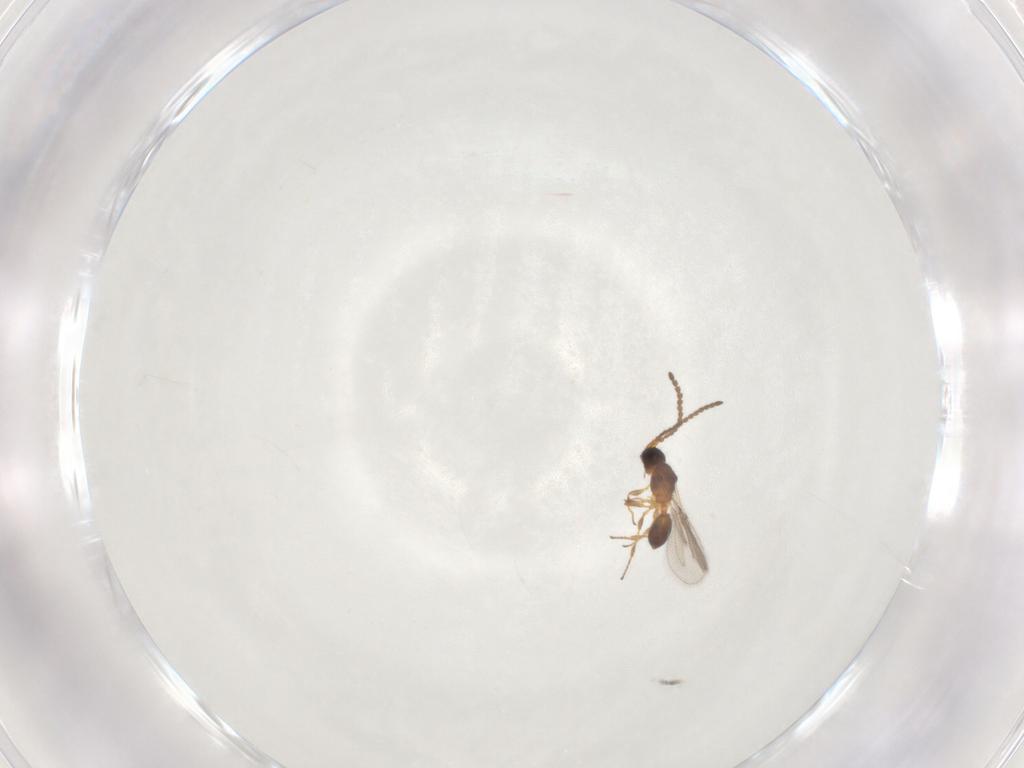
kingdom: Animalia
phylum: Arthropoda
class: Insecta
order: Hymenoptera
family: Diapriidae
